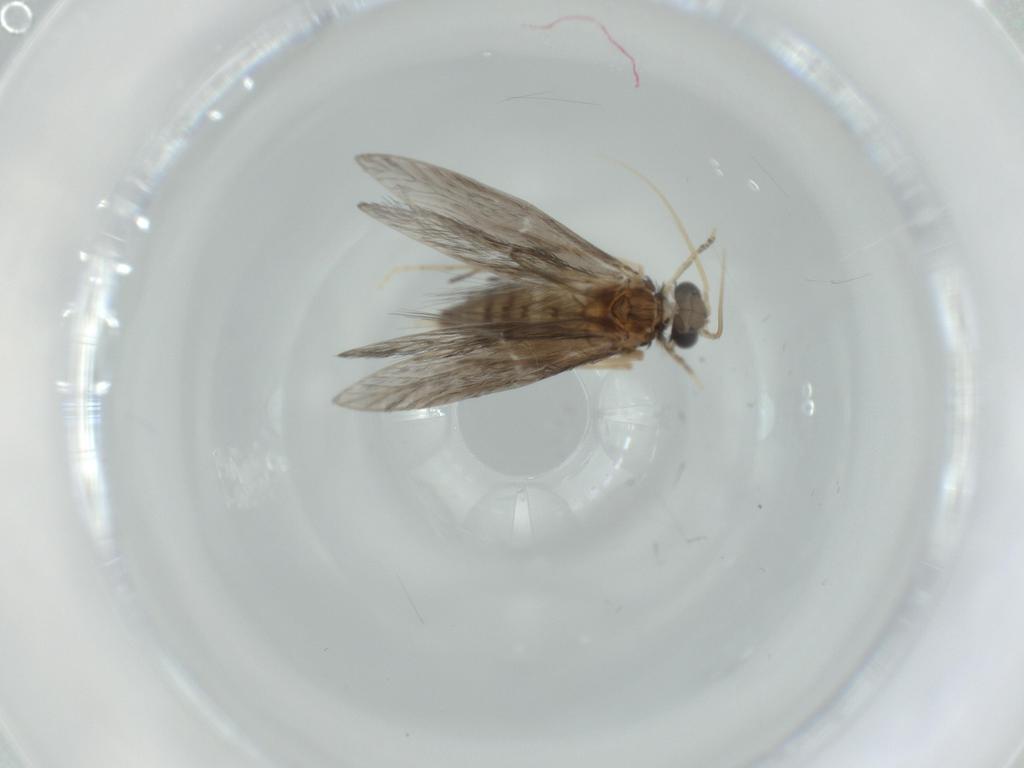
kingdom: Animalia
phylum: Arthropoda
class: Insecta
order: Trichoptera
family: Hydroptilidae
